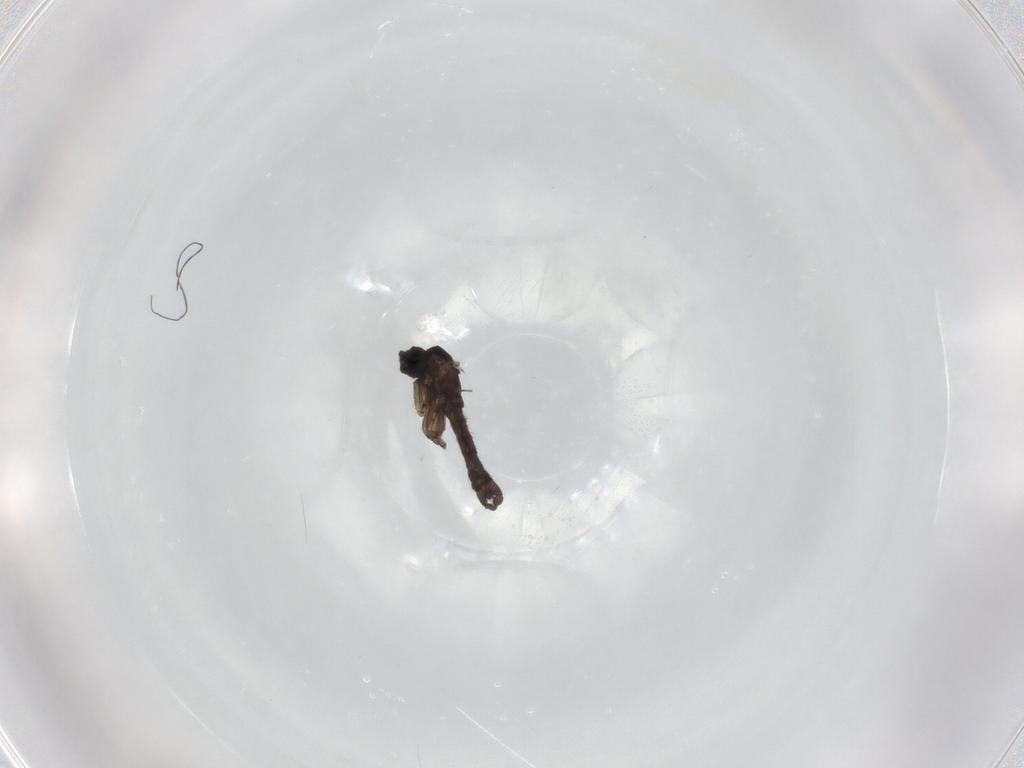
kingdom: Animalia
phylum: Arthropoda
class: Insecta
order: Diptera
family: Sciaridae
